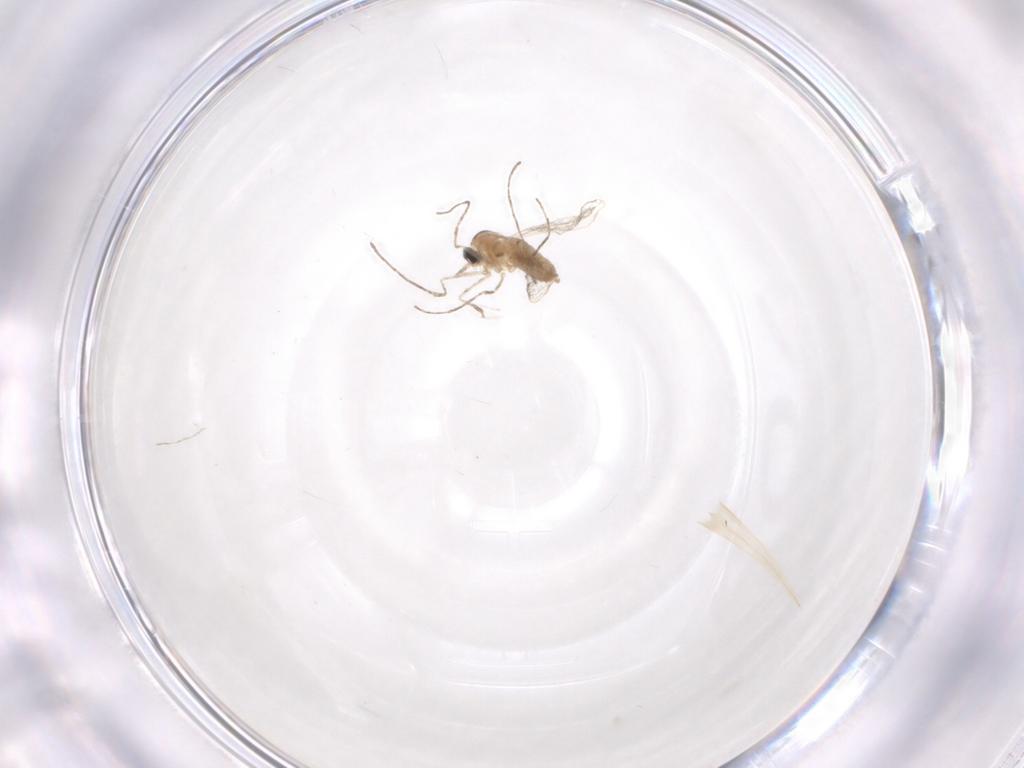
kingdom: Animalia
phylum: Arthropoda
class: Insecta
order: Diptera
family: Cecidomyiidae
